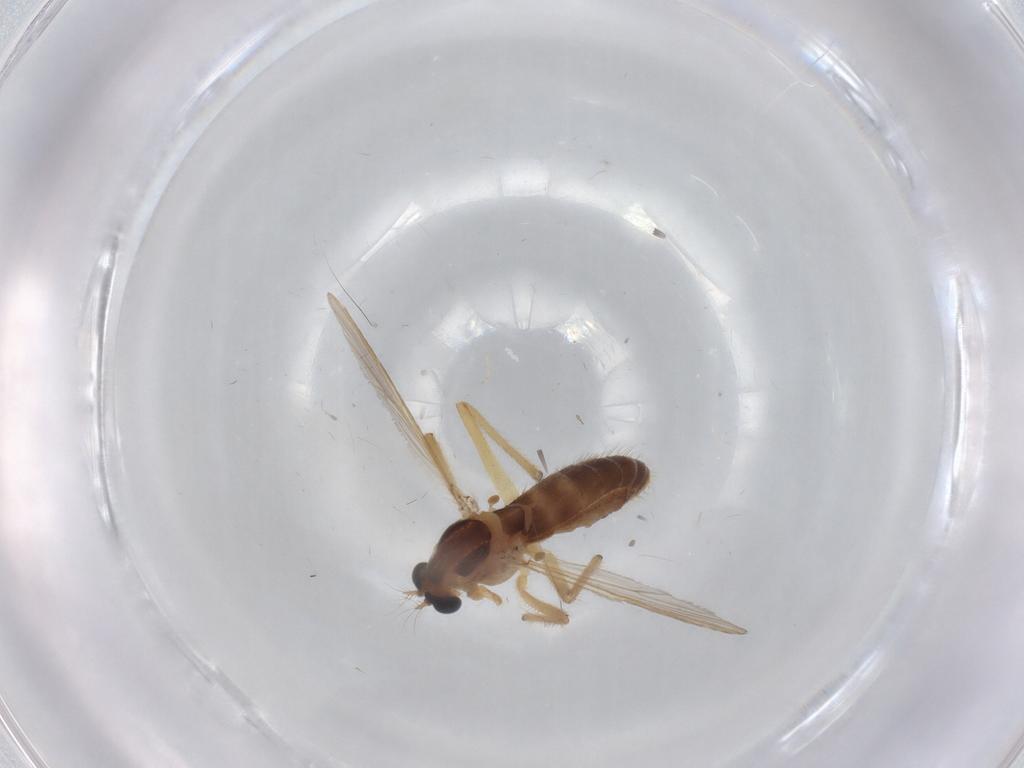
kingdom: Animalia
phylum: Arthropoda
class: Insecta
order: Diptera
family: Chironomidae
